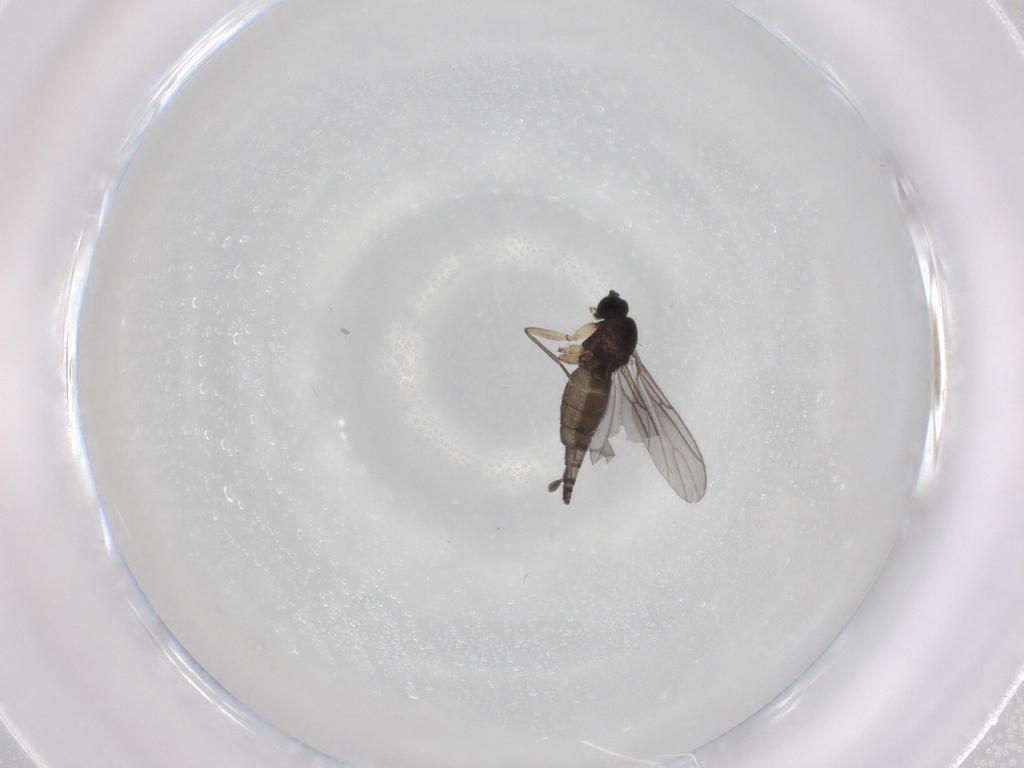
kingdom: Animalia
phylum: Arthropoda
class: Insecta
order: Diptera
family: Sciaridae
